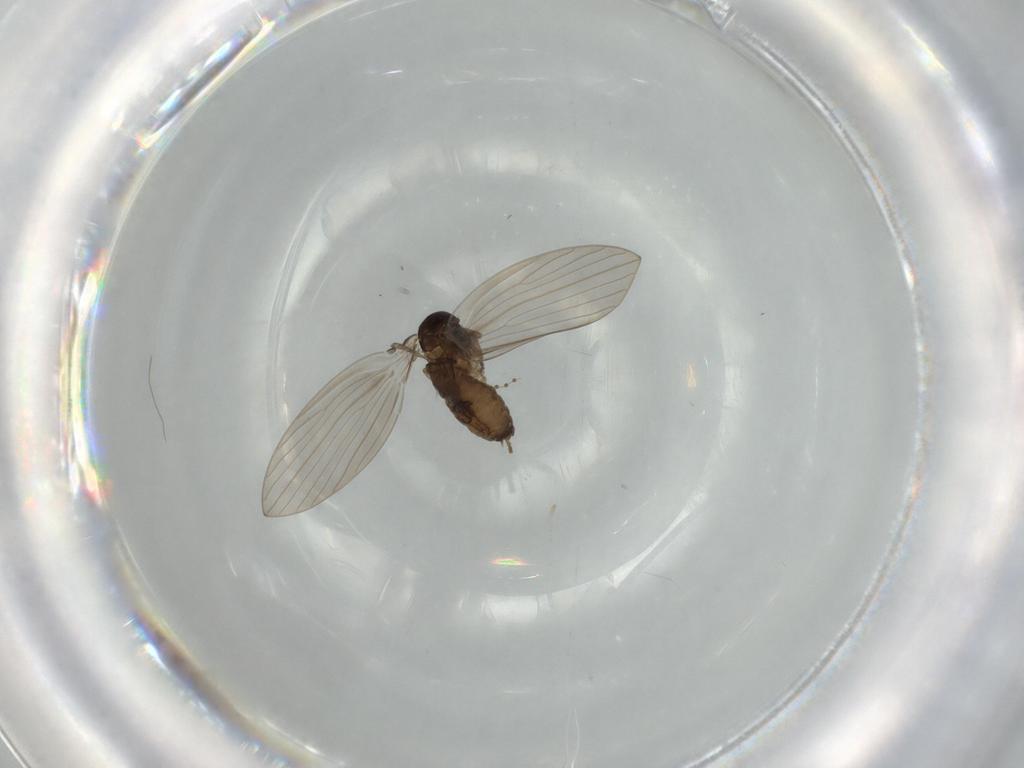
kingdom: Animalia
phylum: Arthropoda
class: Insecta
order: Diptera
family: Psychodidae
